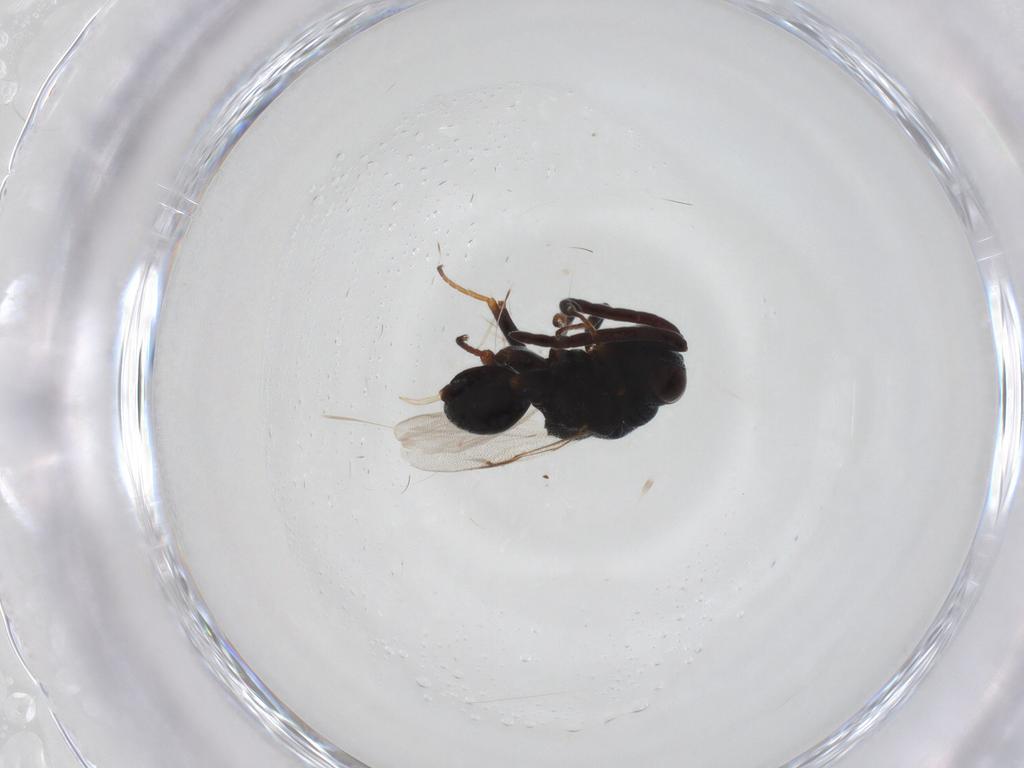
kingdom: Animalia
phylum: Arthropoda
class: Insecta
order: Hymenoptera
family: Chalcididae
